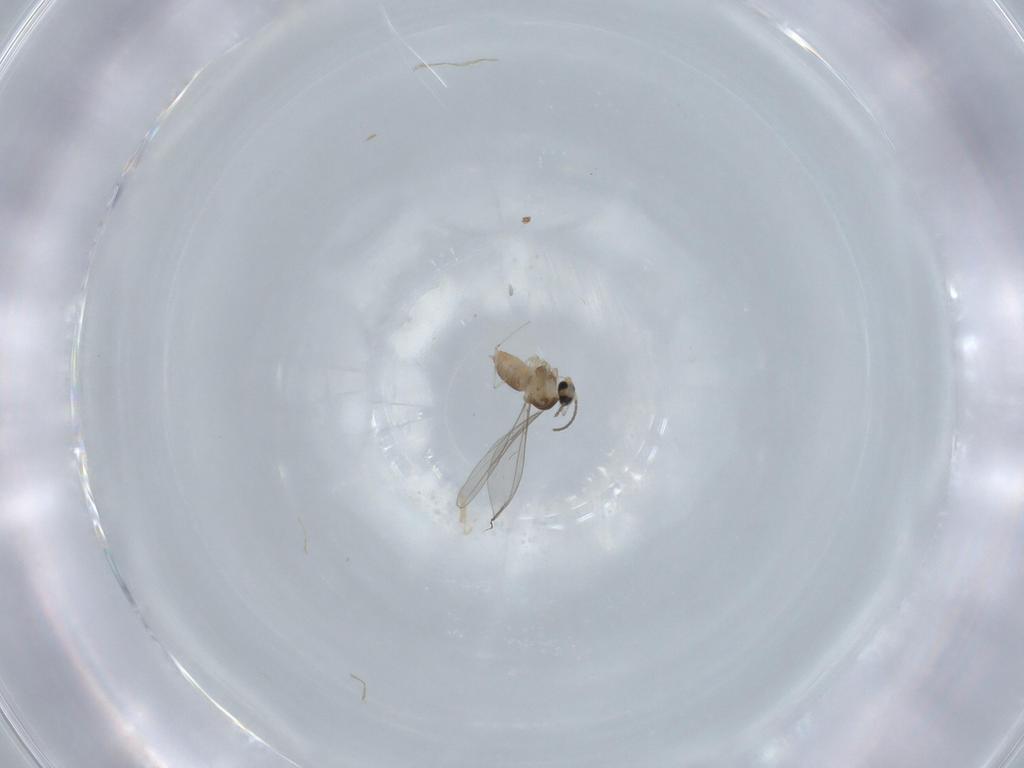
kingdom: Animalia
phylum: Arthropoda
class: Insecta
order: Diptera
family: Cecidomyiidae
